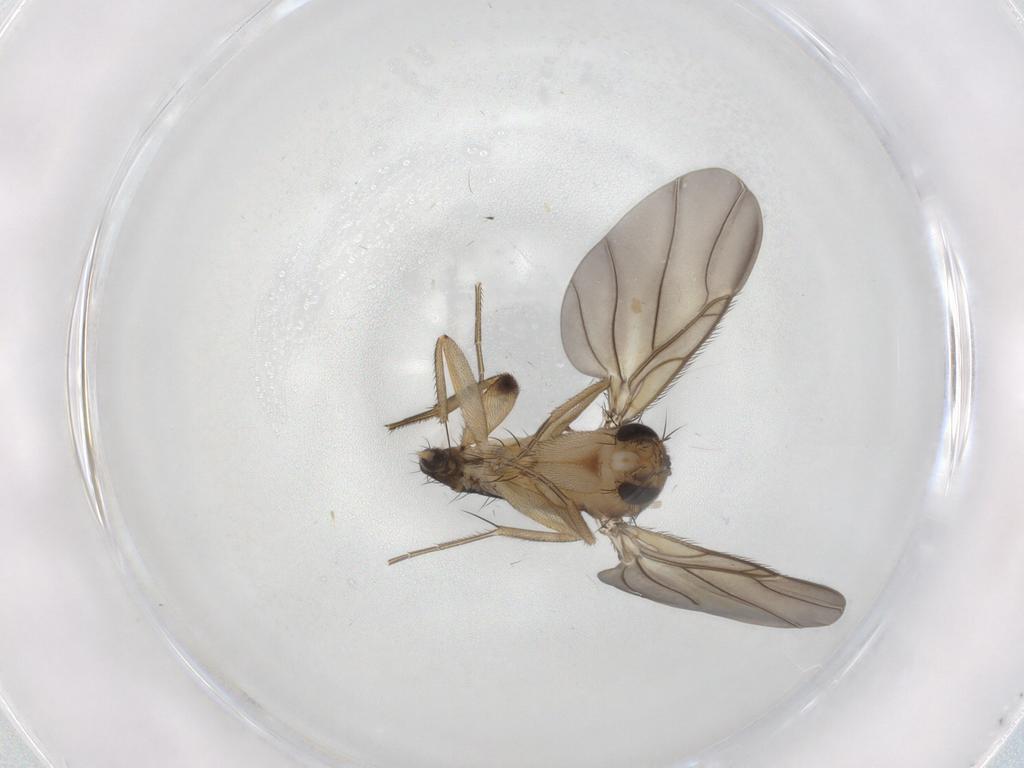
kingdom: Animalia
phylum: Arthropoda
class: Insecta
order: Diptera
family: Phoridae
